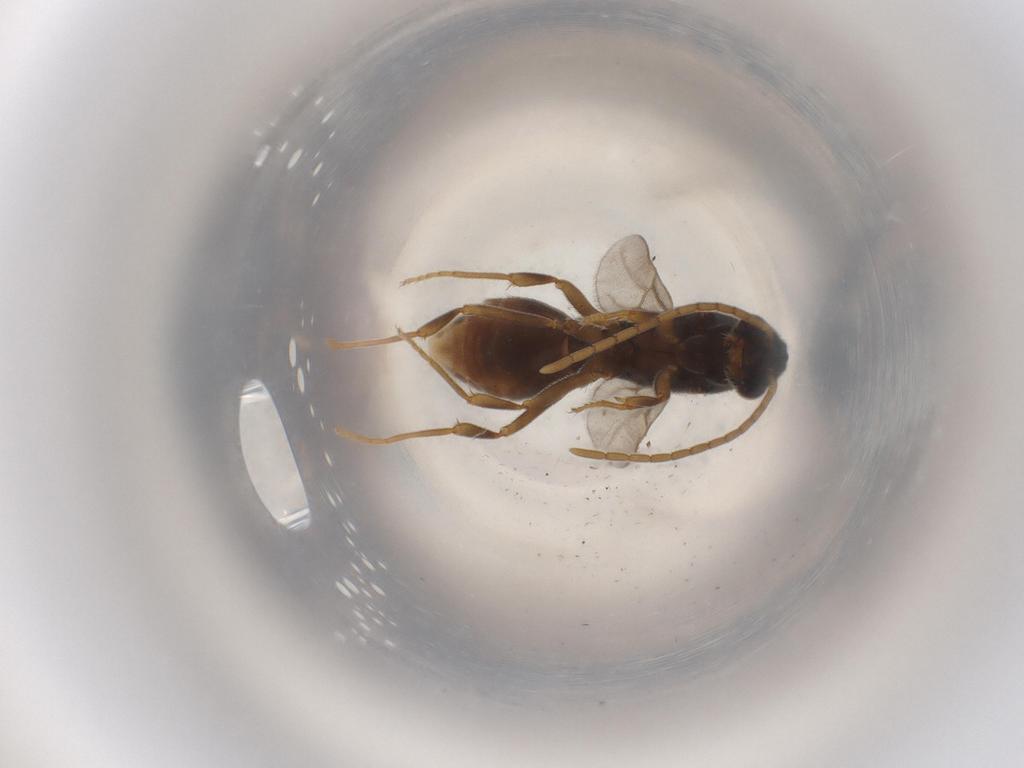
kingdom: Animalia
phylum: Arthropoda
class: Insecta
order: Hymenoptera
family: Formicidae
